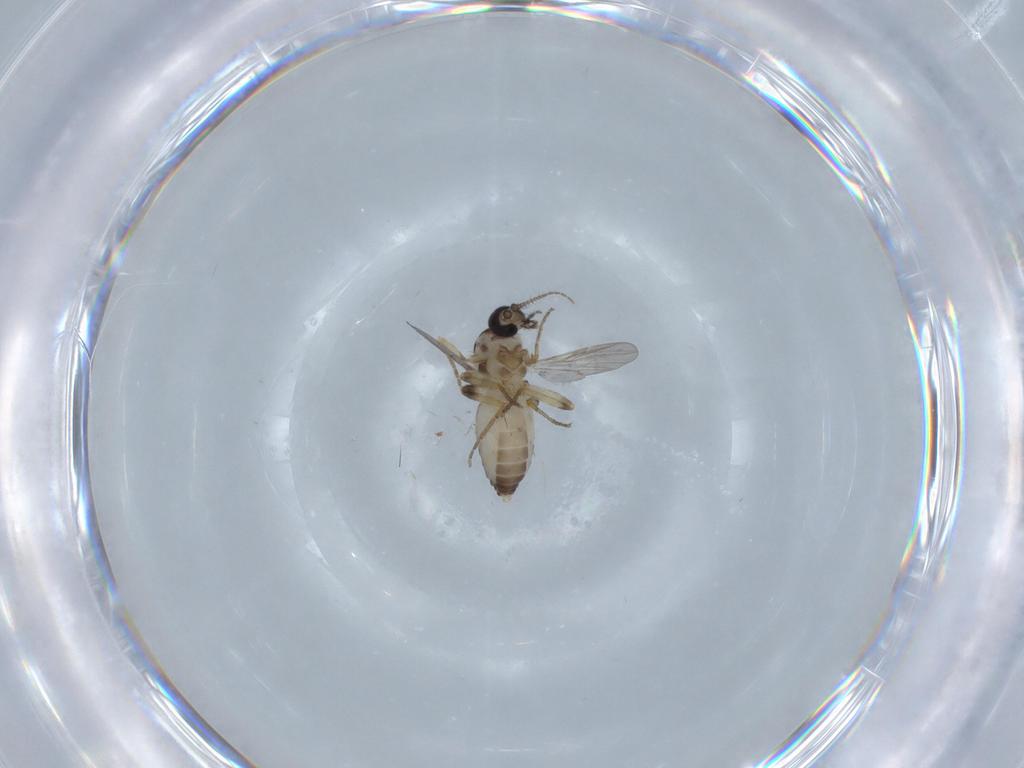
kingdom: Animalia
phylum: Arthropoda
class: Insecta
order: Diptera
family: Ceratopogonidae
